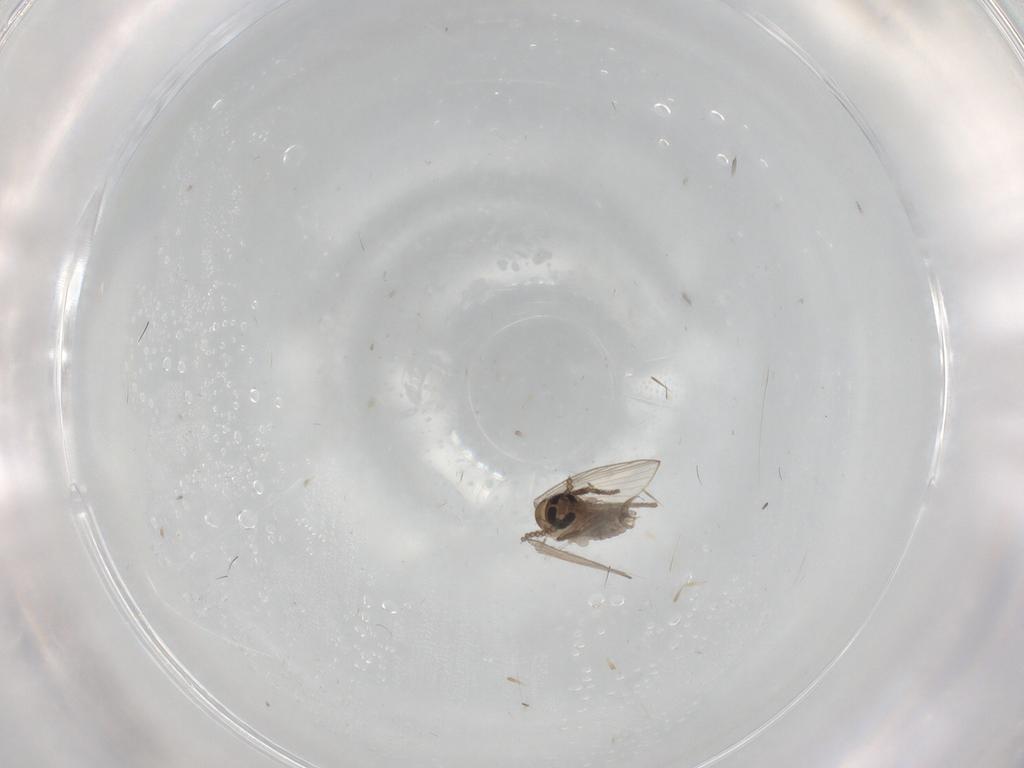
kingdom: Animalia
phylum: Arthropoda
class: Insecta
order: Diptera
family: Psychodidae
